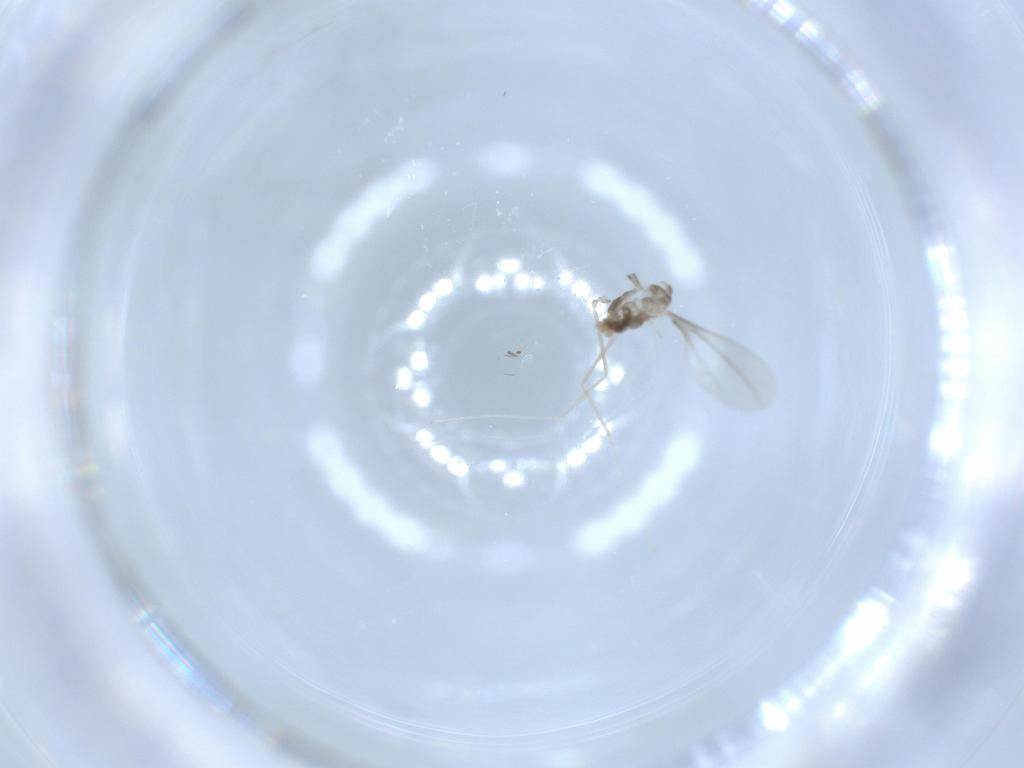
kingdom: Animalia
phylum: Arthropoda
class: Insecta
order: Diptera
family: Cecidomyiidae
